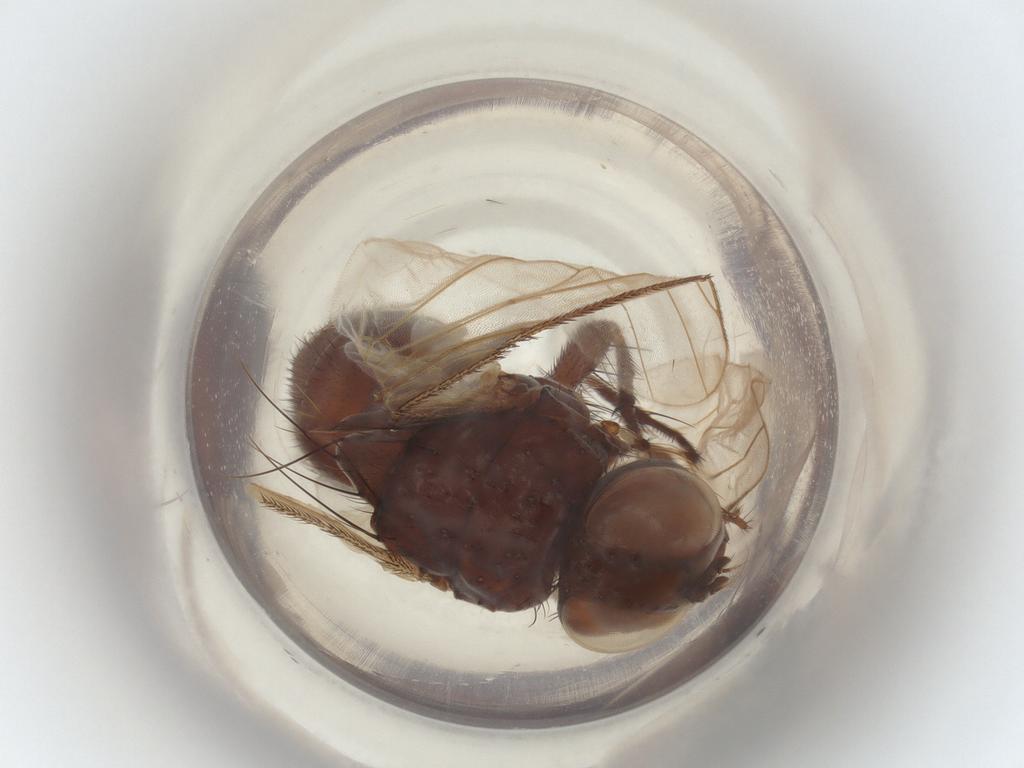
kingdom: Animalia
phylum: Arthropoda
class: Insecta
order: Diptera
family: Muscidae
